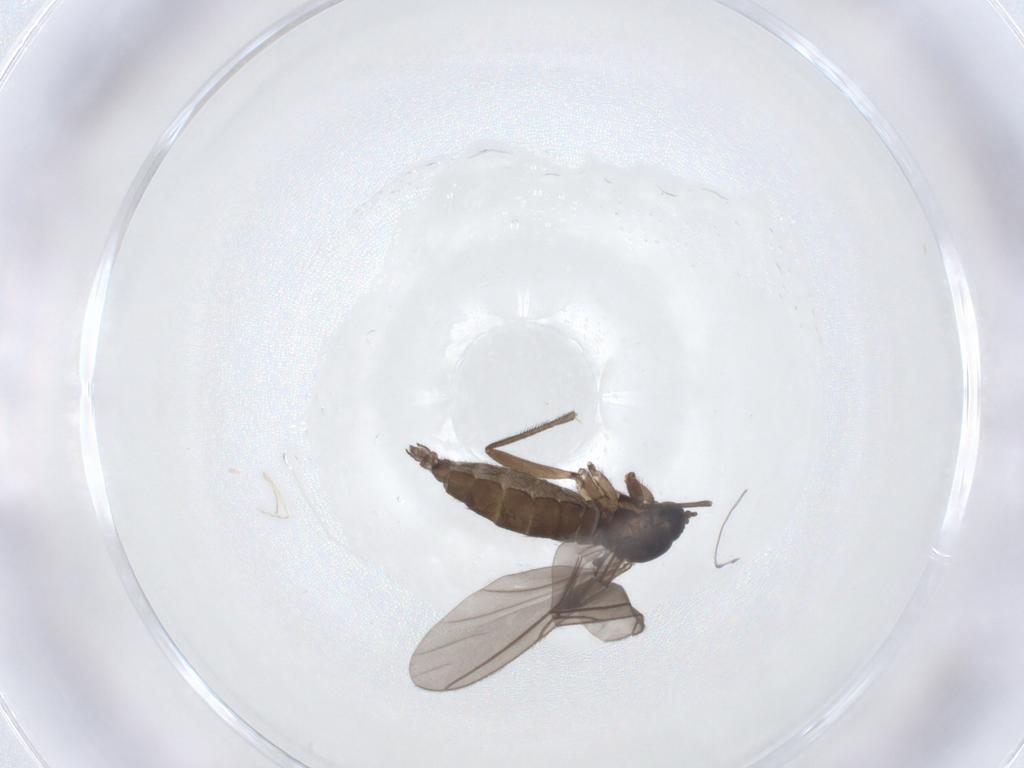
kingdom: Animalia
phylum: Arthropoda
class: Insecta
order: Diptera
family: Sciaridae
